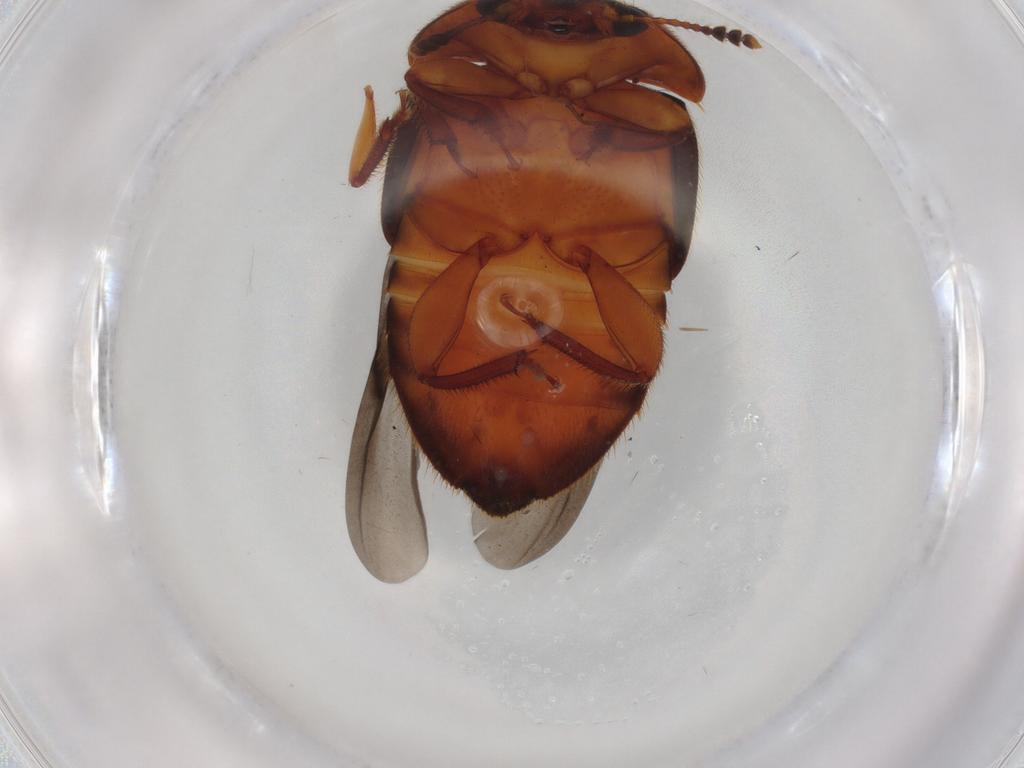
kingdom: Animalia
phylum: Arthropoda
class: Insecta
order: Coleoptera
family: Nitidulidae
